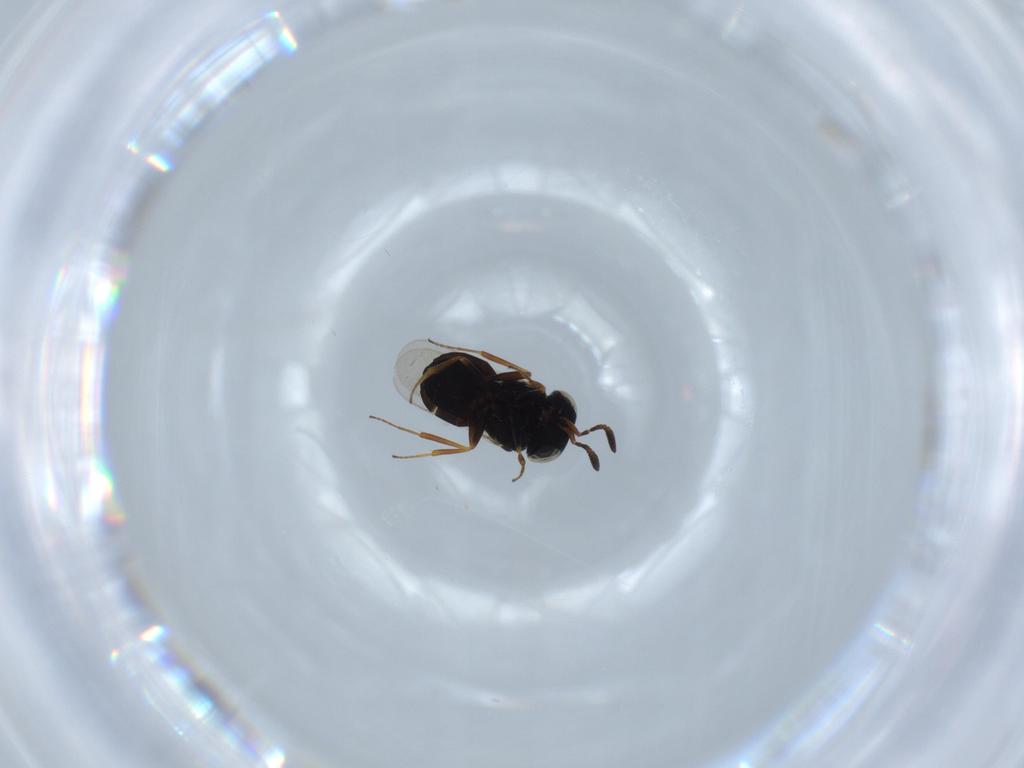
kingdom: Animalia
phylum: Arthropoda
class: Insecta
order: Hymenoptera
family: Scelionidae
